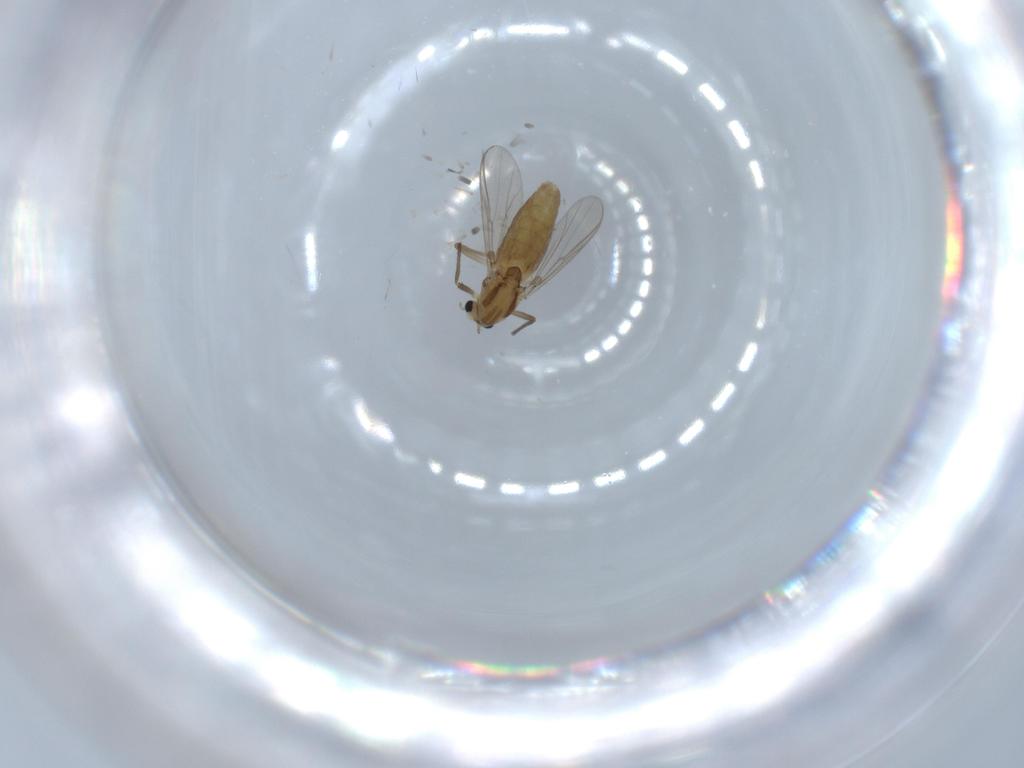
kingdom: Animalia
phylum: Arthropoda
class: Insecta
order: Diptera
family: Chironomidae
